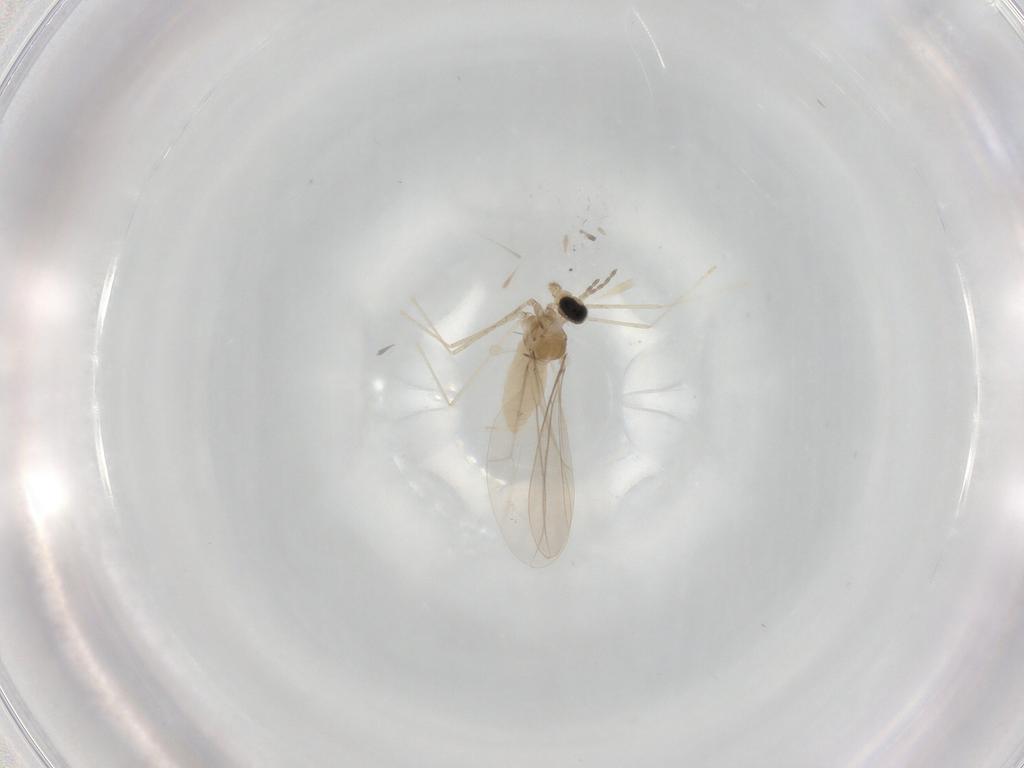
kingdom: Animalia
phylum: Arthropoda
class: Insecta
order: Diptera
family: Cecidomyiidae
